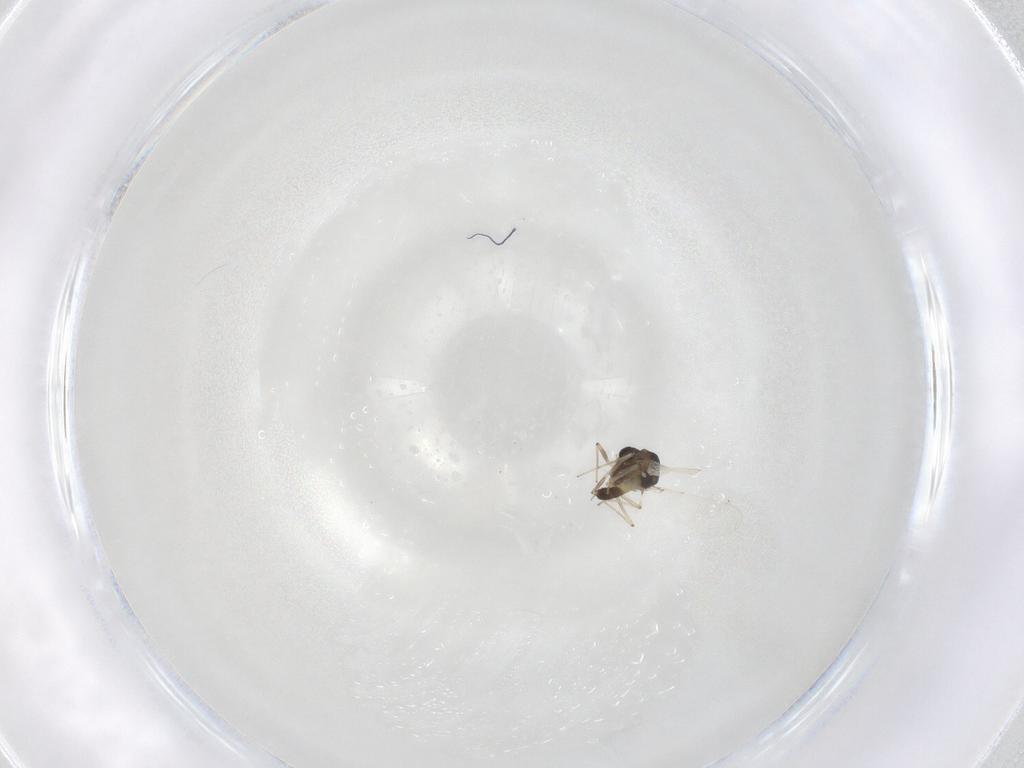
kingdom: Animalia
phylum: Arthropoda
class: Insecta
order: Diptera
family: Chironomidae
